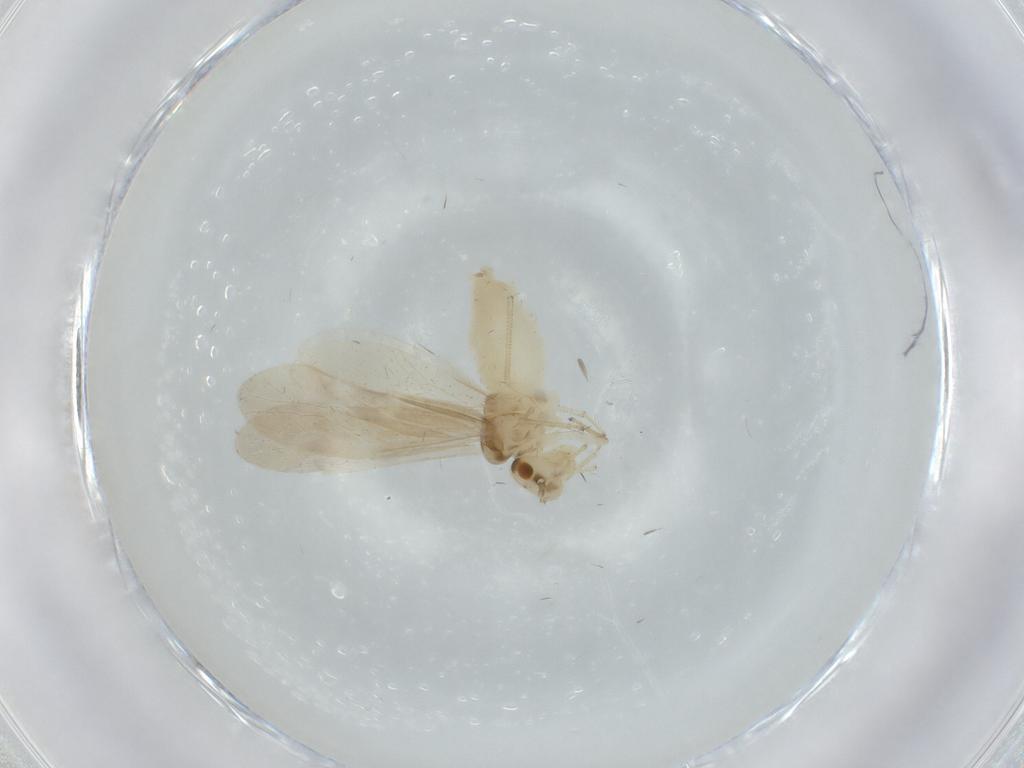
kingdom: Animalia
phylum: Arthropoda
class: Insecta
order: Psocodea
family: Caeciliusidae
